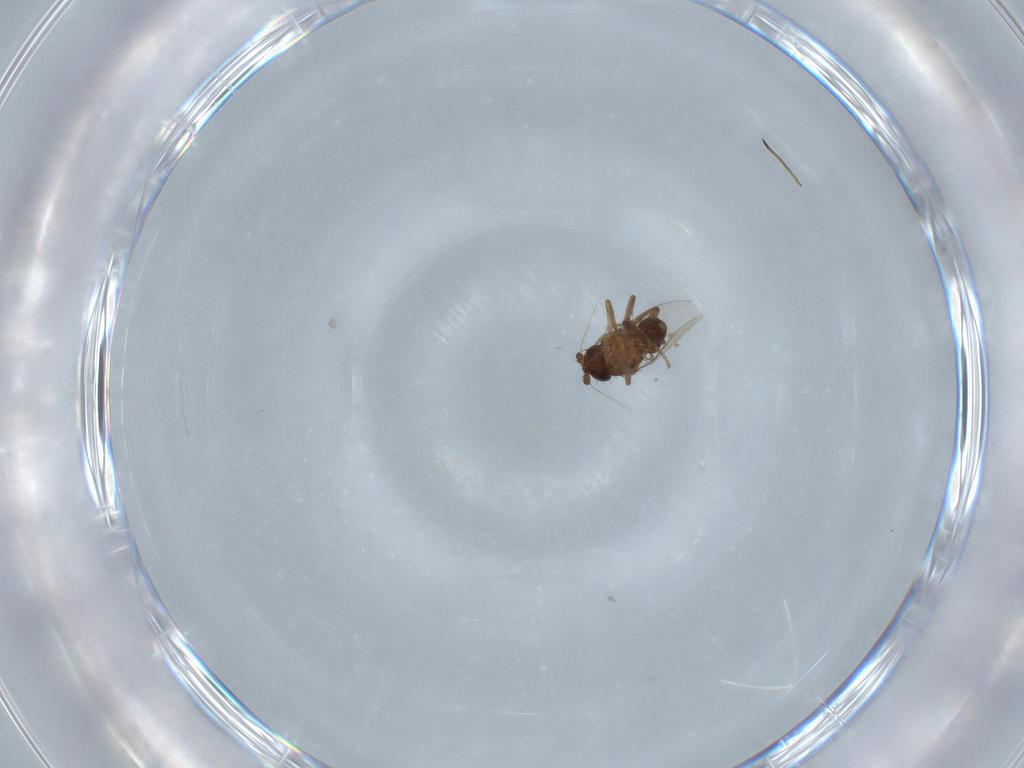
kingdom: Animalia
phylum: Arthropoda
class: Insecta
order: Diptera
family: Sphaeroceridae
